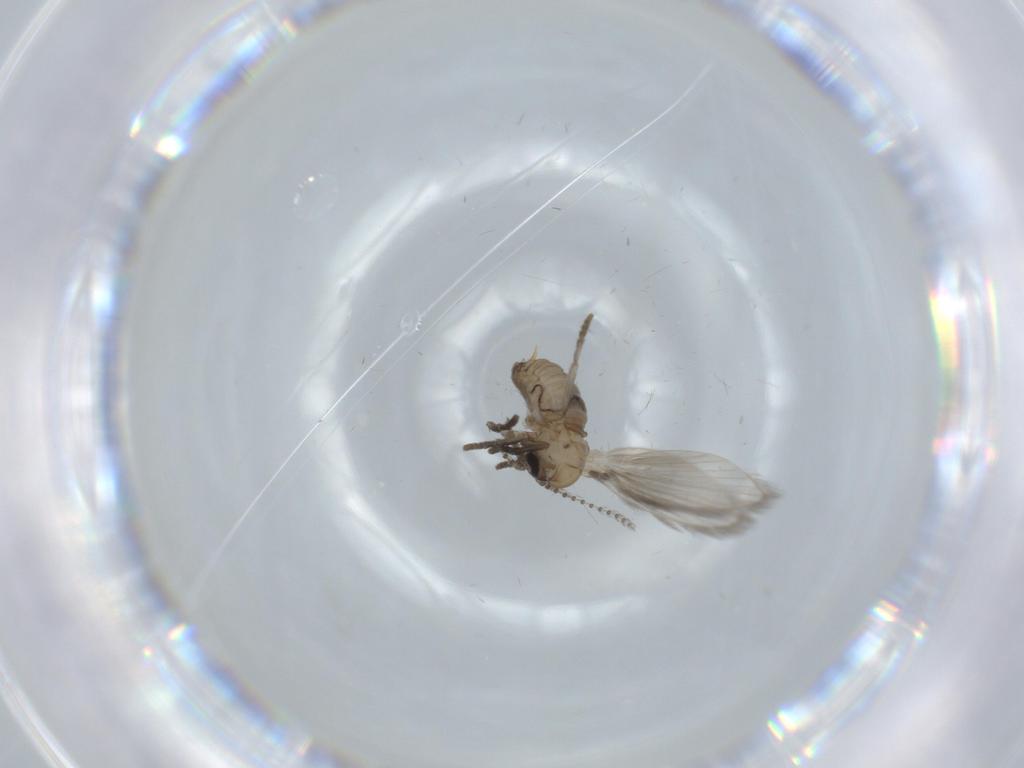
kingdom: Animalia
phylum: Arthropoda
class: Insecta
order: Diptera
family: Psychodidae
